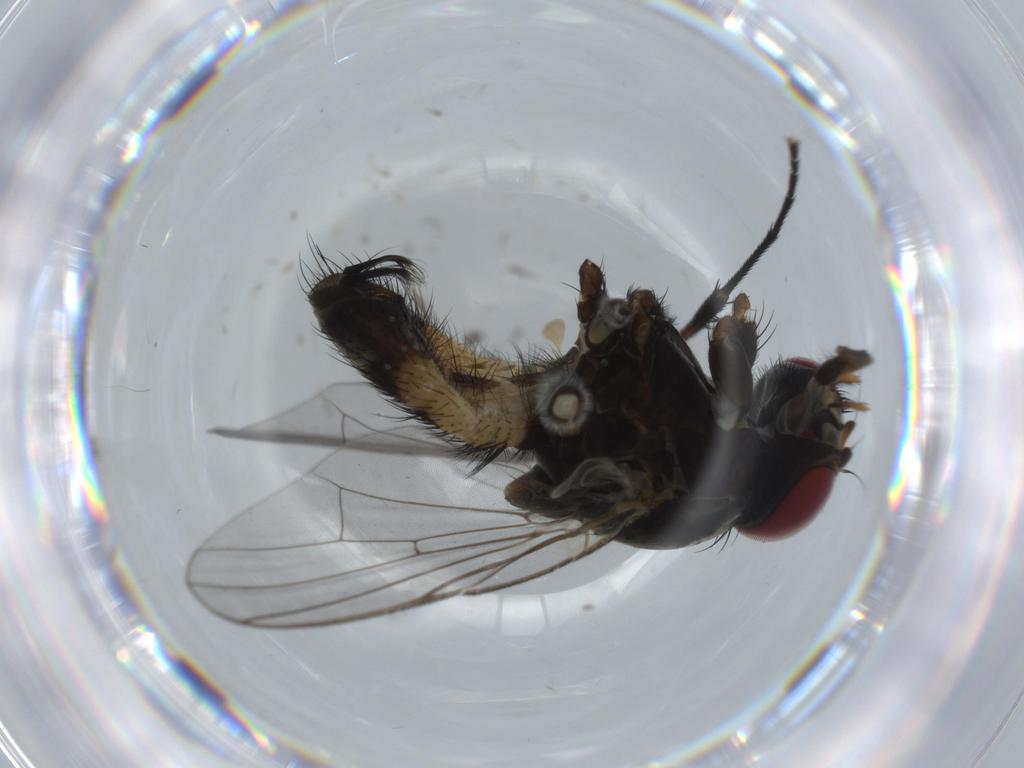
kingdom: Animalia
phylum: Arthropoda
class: Insecta
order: Diptera
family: Fannia
